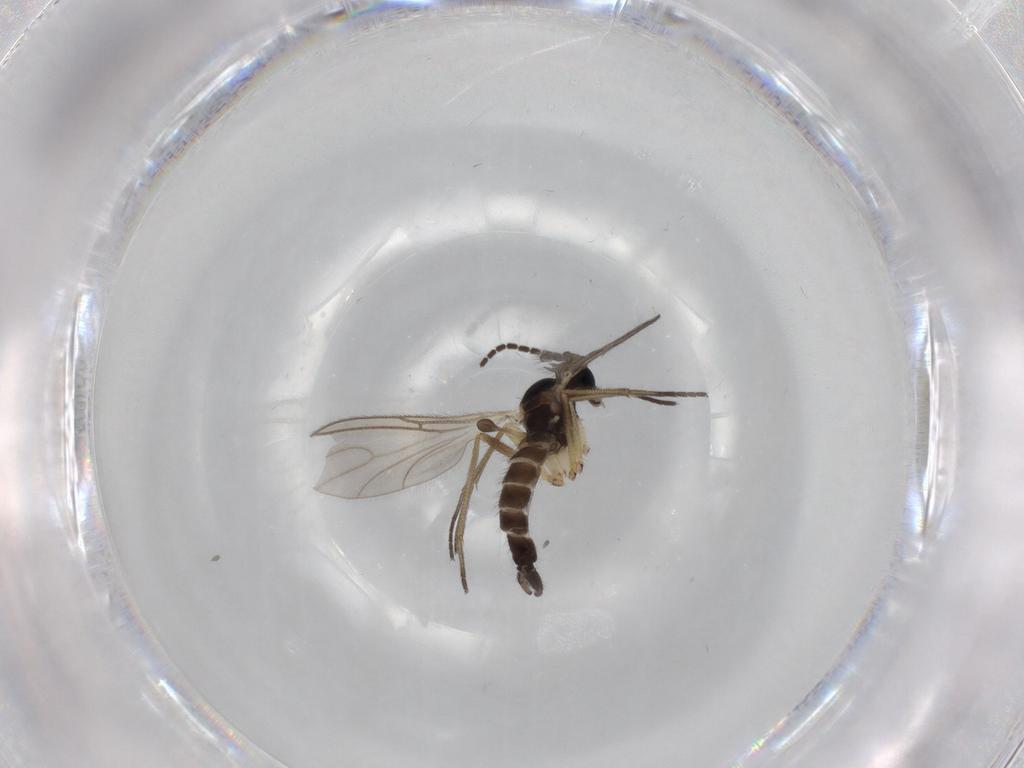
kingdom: Animalia
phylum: Arthropoda
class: Insecta
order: Diptera
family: Sciaridae
